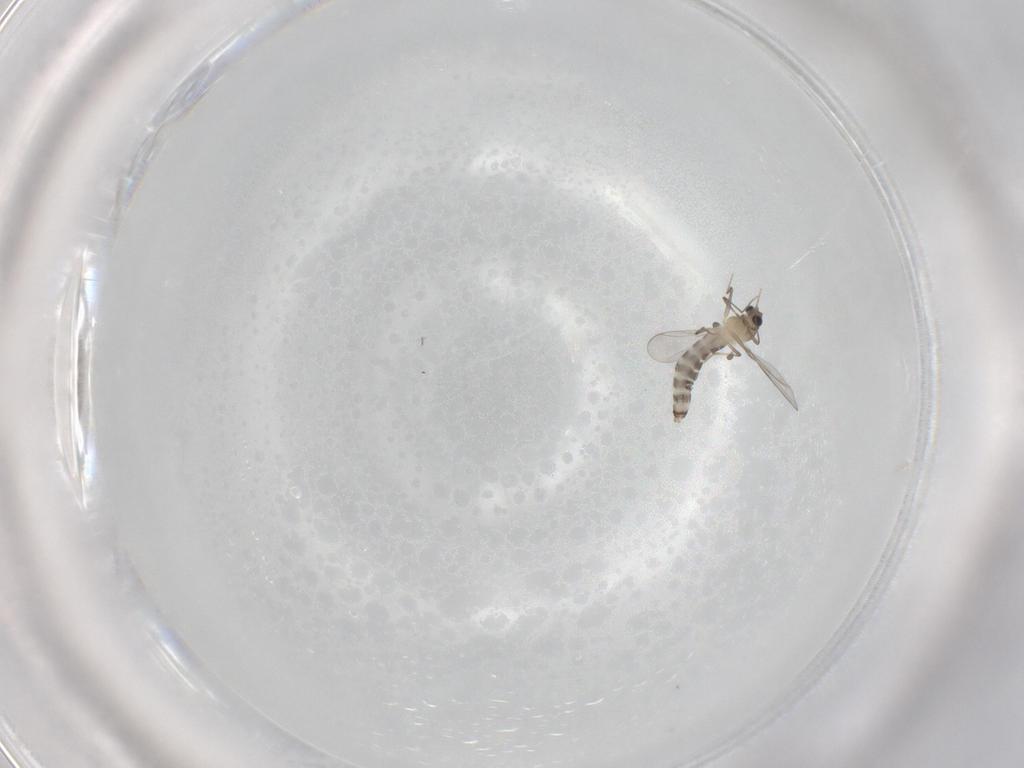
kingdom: Animalia
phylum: Arthropoda
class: Insecta
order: Diptera
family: Chironomidae
